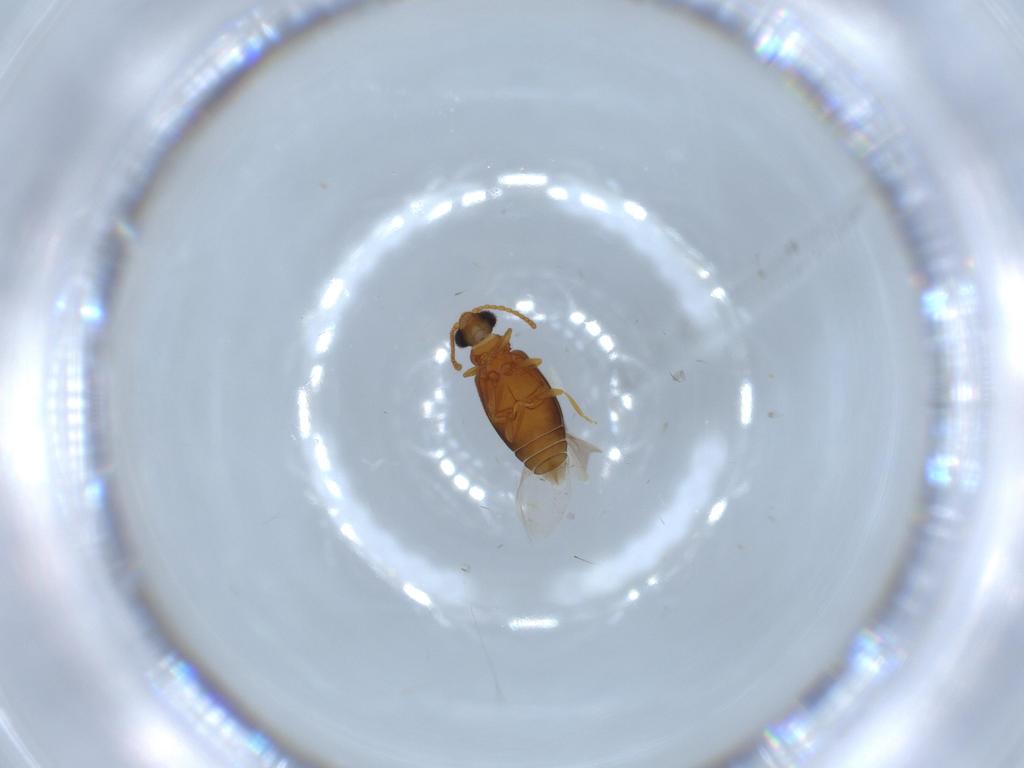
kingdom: Animalia
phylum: Arthropoda
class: Insecta
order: Coleoptera
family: Aderidae
